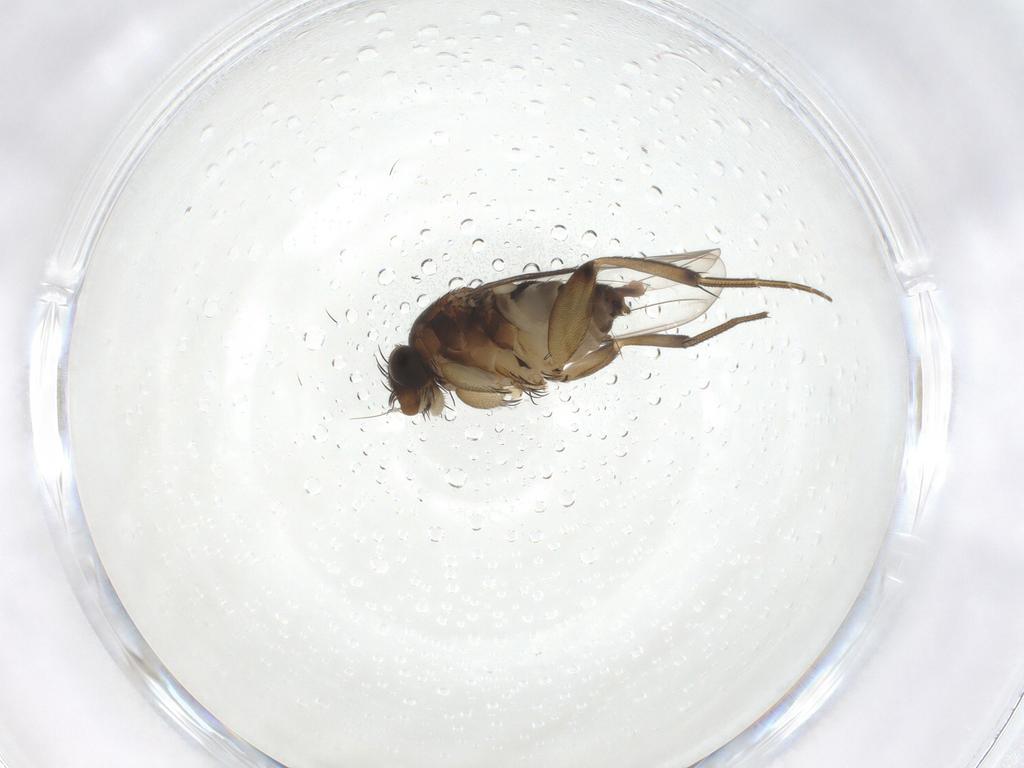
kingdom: Animalia
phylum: Arthropoda
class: Insecta
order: Diptera
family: Phoridae
